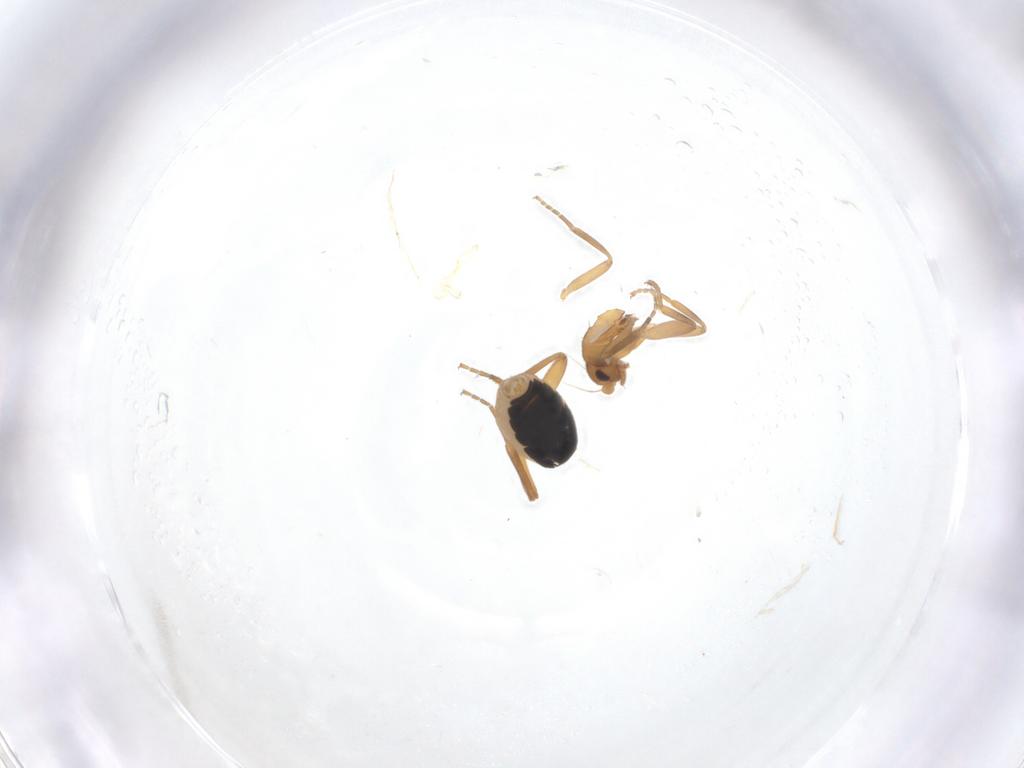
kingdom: Animalia
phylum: Arthropoda
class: Insecta
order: Diptera
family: Phoridae
